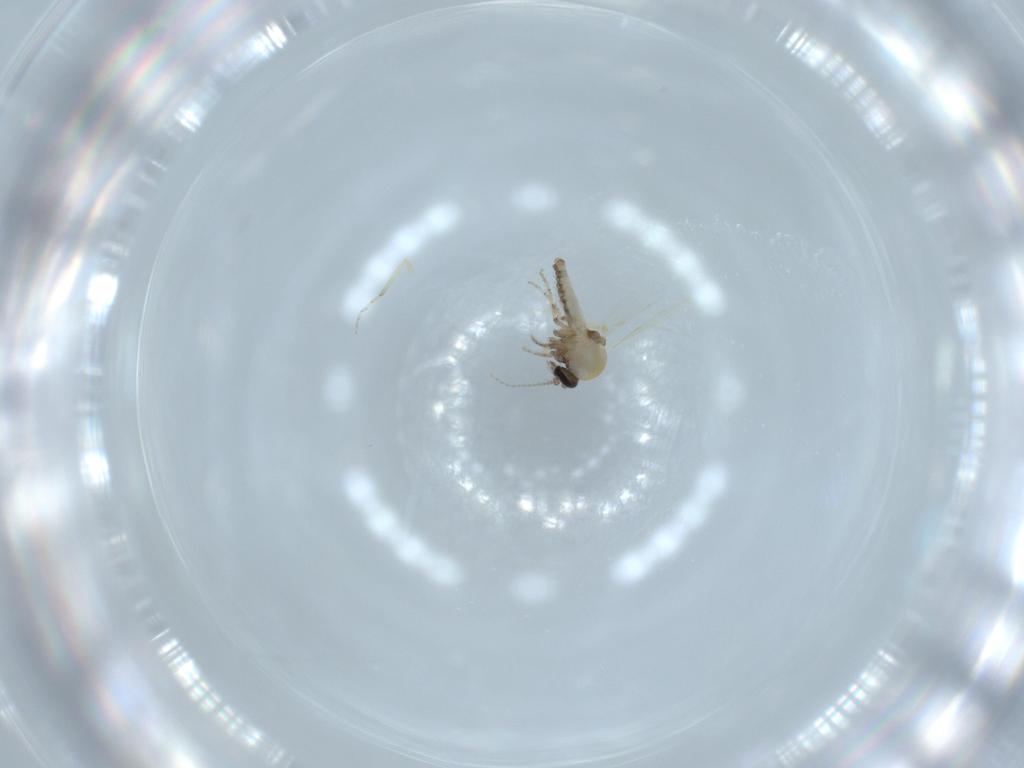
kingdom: Animalia
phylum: Arthropoda
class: Insecta
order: Diptera
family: Ceratopogonidae
